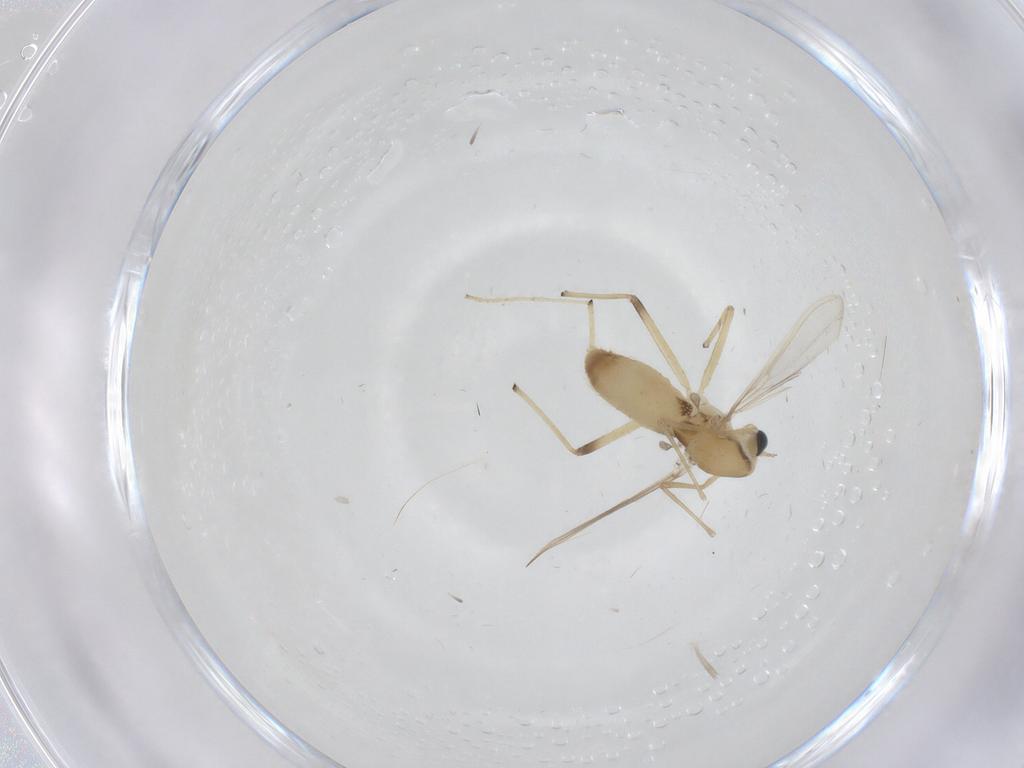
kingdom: Animalia
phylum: Arthropoda
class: Insecta
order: Diptera
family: Chironomidae
